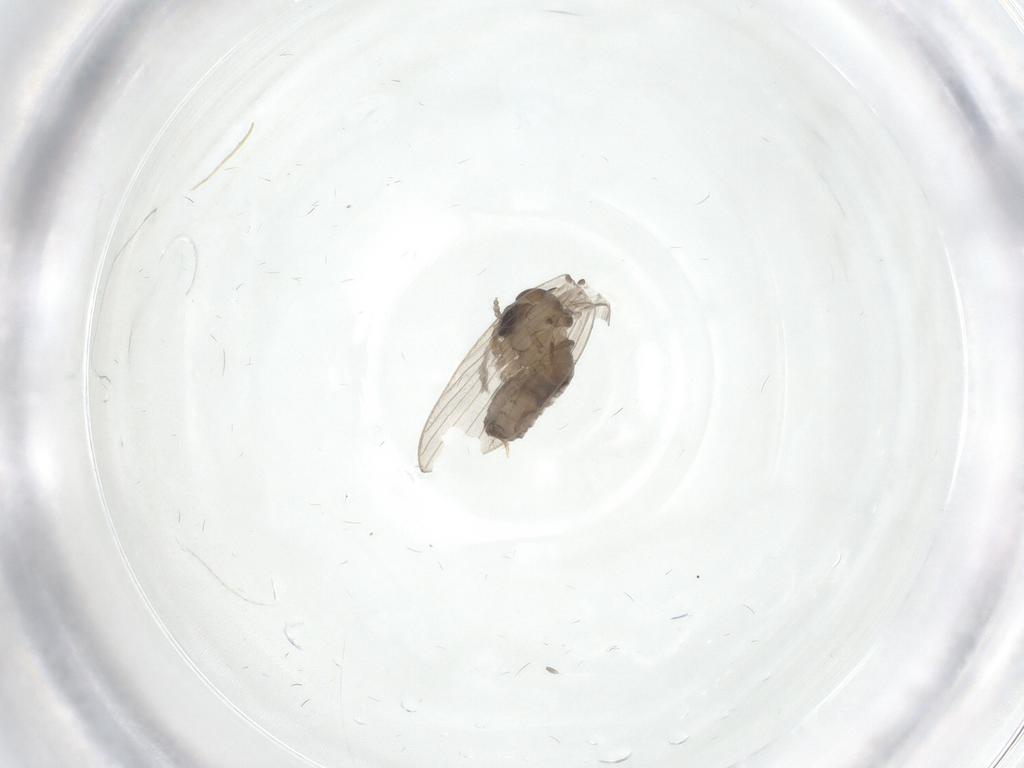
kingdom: Animalia
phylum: Arthropoda
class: Insecta
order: Diptera
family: Psychodidae
